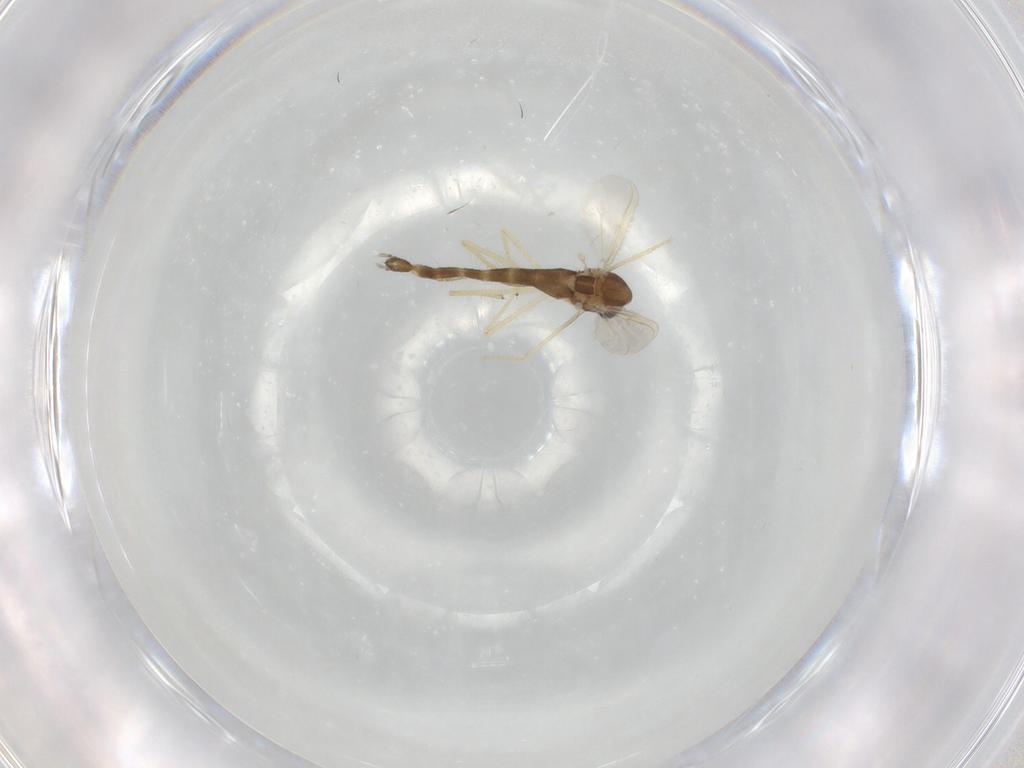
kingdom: Animalia
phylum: Arthropoda
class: Insecta
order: Diptera
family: Chironomidae
